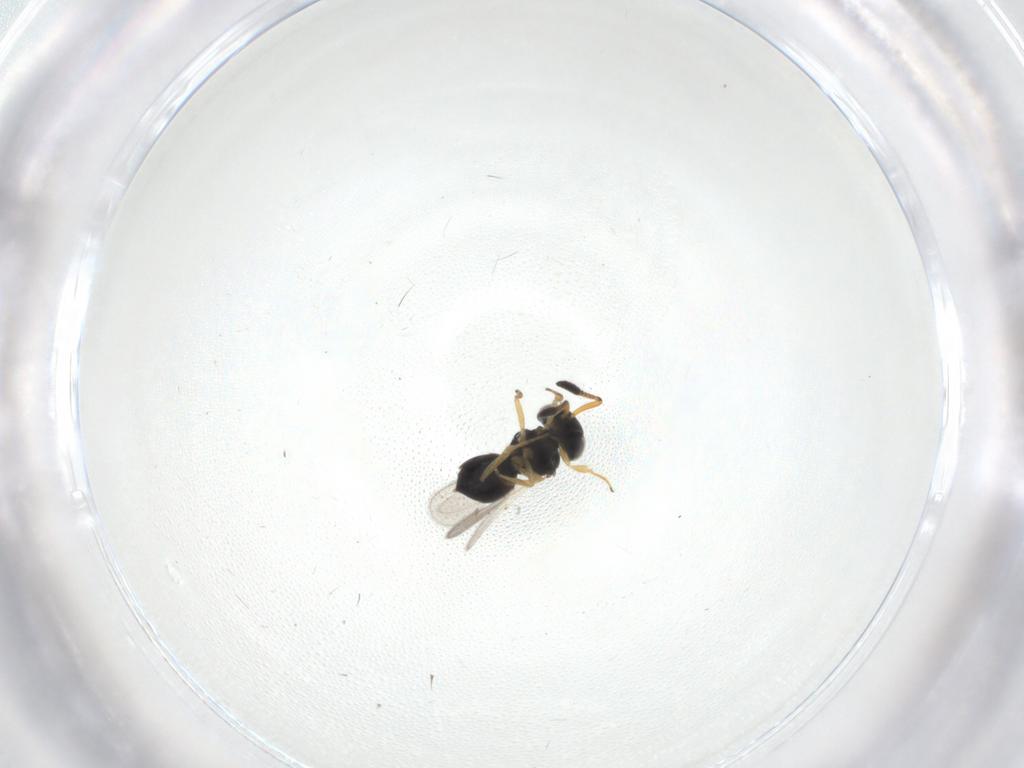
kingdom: Animalia
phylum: Arthropoda
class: Insecta
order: Hymenoptera
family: Scelionidae
